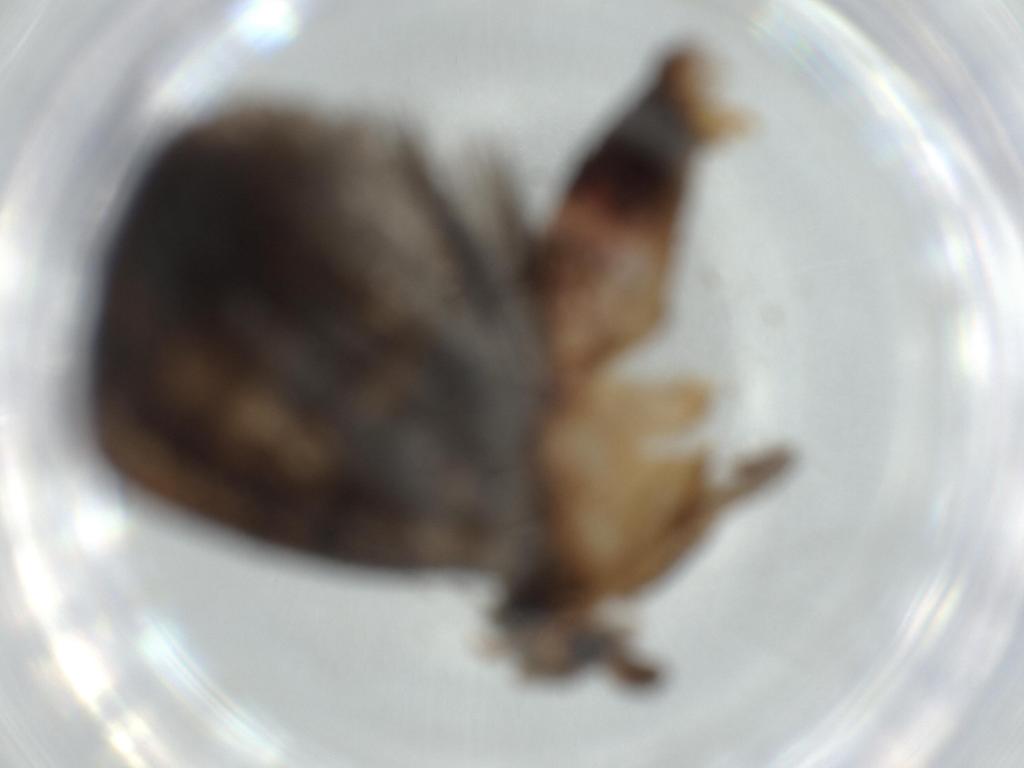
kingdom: Animalia
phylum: Arthropoda
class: Insecta
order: Lepidoptera
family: Tineidae
